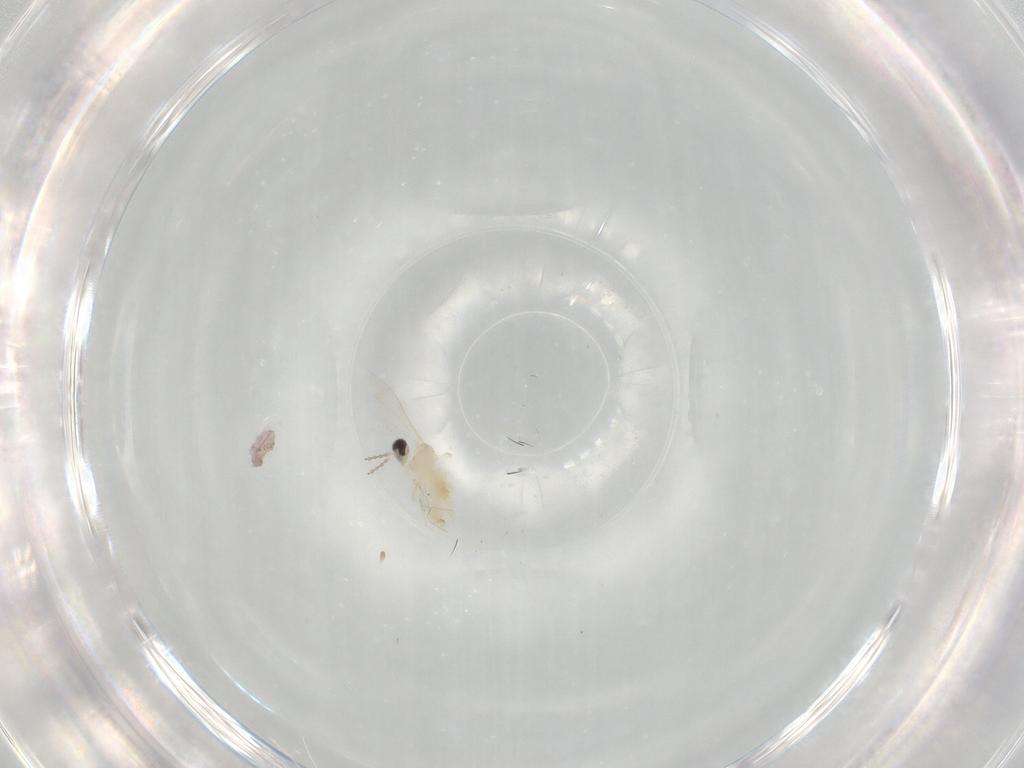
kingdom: Animalia
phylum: Arthropoda
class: Insecta
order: Diptera
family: Cecidomyiidae
